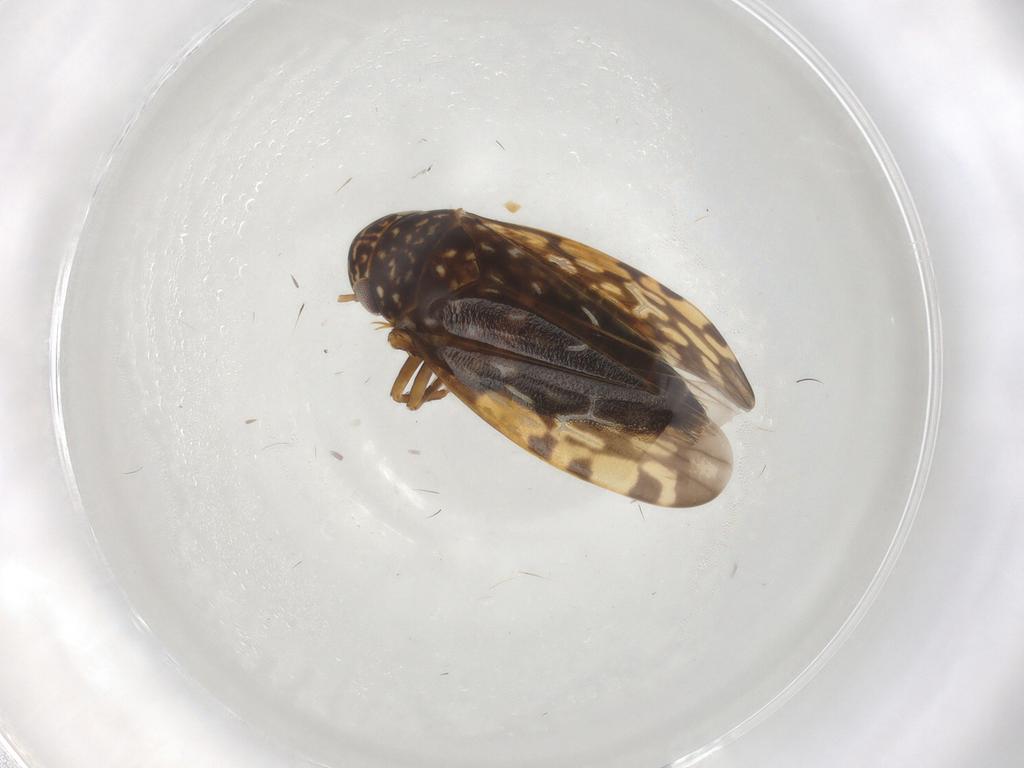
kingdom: Animalia
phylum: Arthropoda
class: Insecta
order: Hemiptera
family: Cicadellidae
